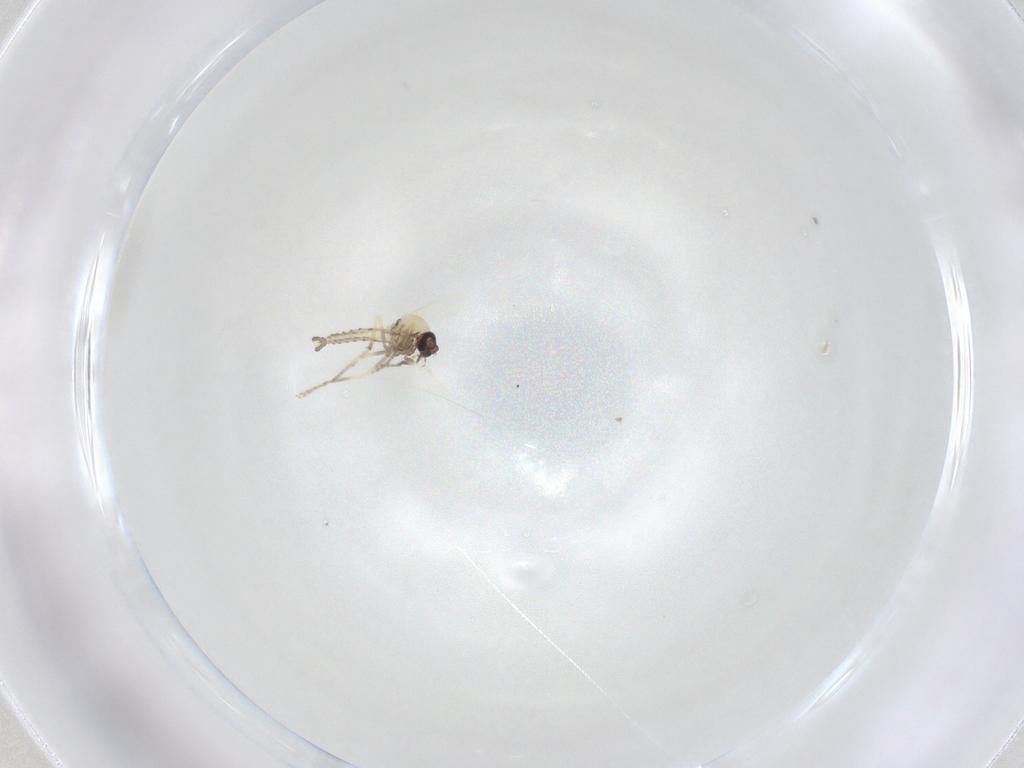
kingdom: Animalia
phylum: Arthropoda
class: Insecta
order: Diptera
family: Ceratopogonidae
